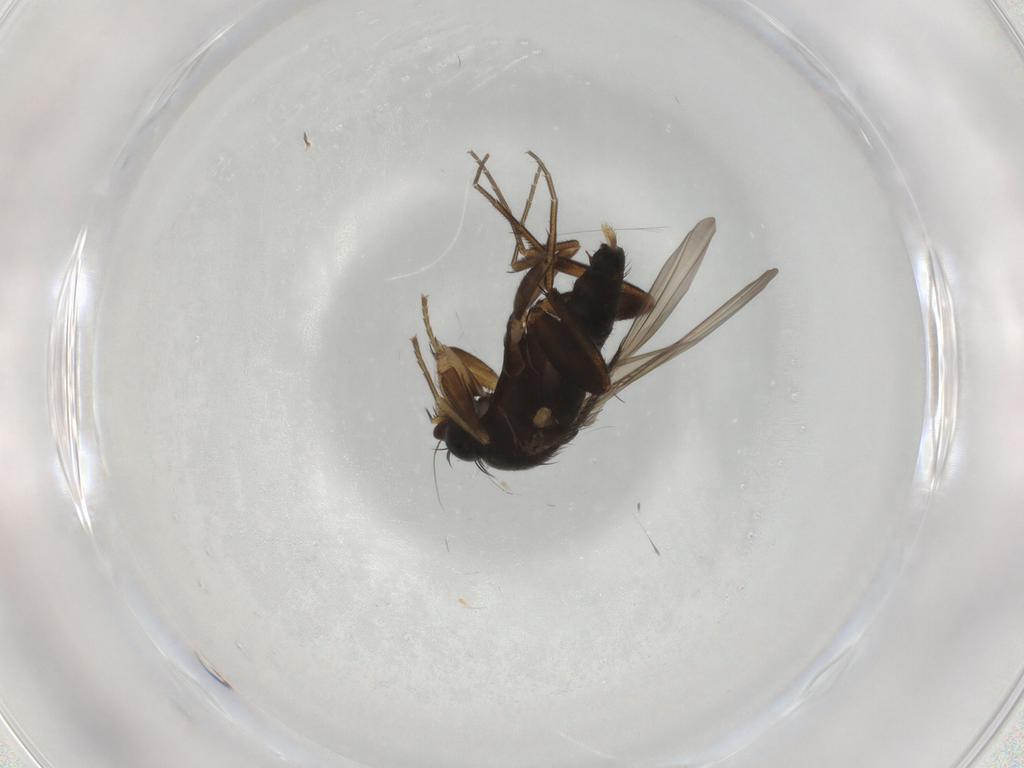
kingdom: Animalia
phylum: Arthropoda
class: Insecta
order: Diptera
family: Phoridae
